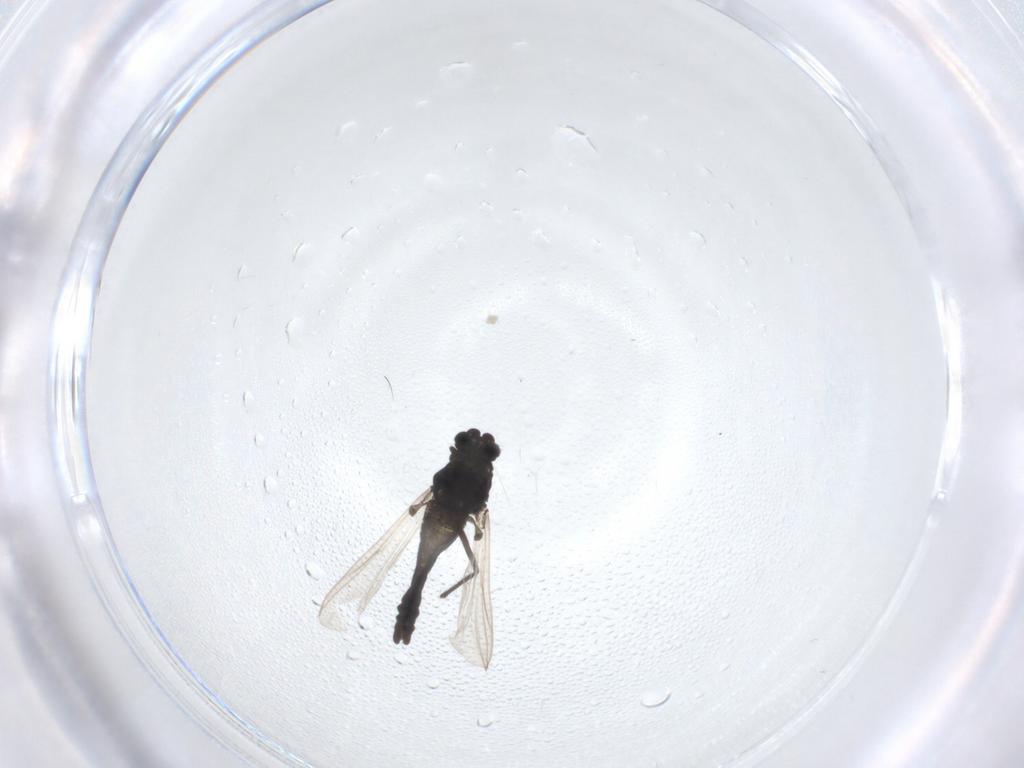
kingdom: Animalia
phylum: Arthropoda
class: Insecta
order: Diptera
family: Chironomidae
